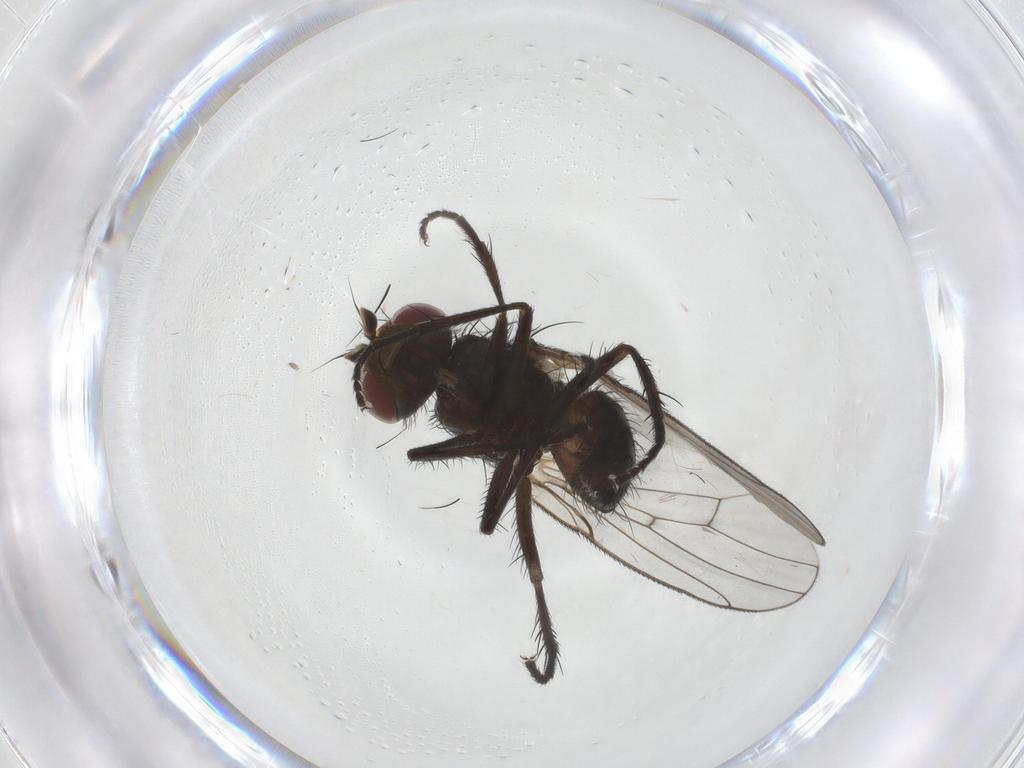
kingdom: Animalia
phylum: Arthropoda
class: Insecta
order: Diptera
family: Muscidae
